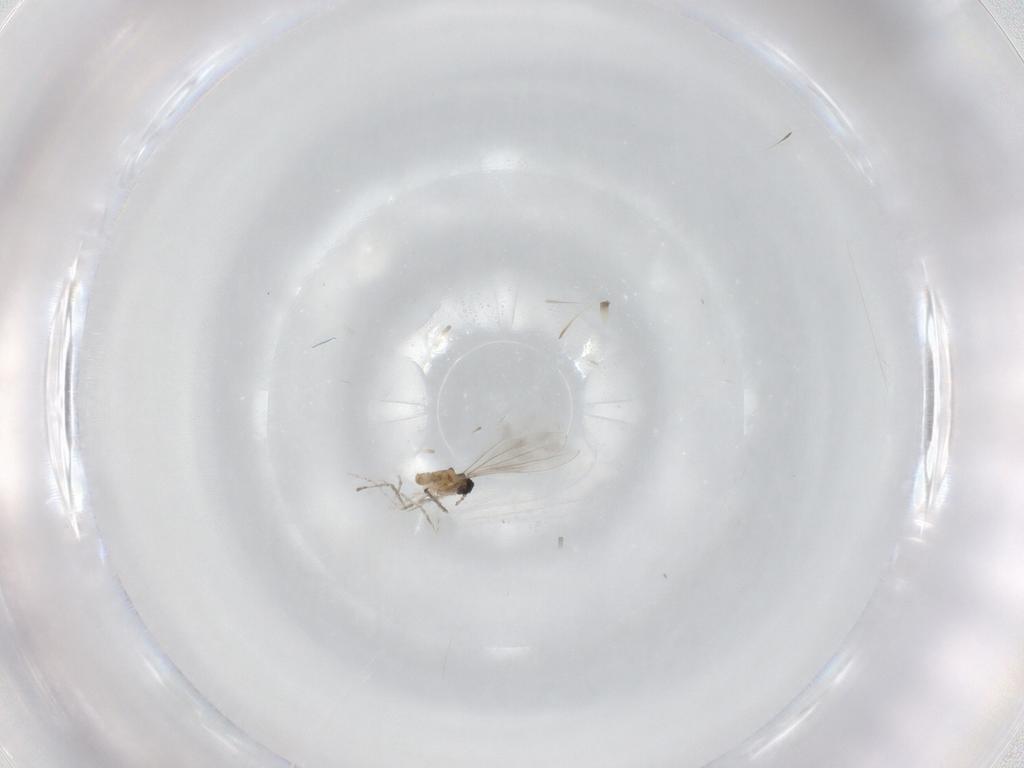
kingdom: Animalia
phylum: Arthropoda
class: Insecta
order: Diptera
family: Psychodidae
